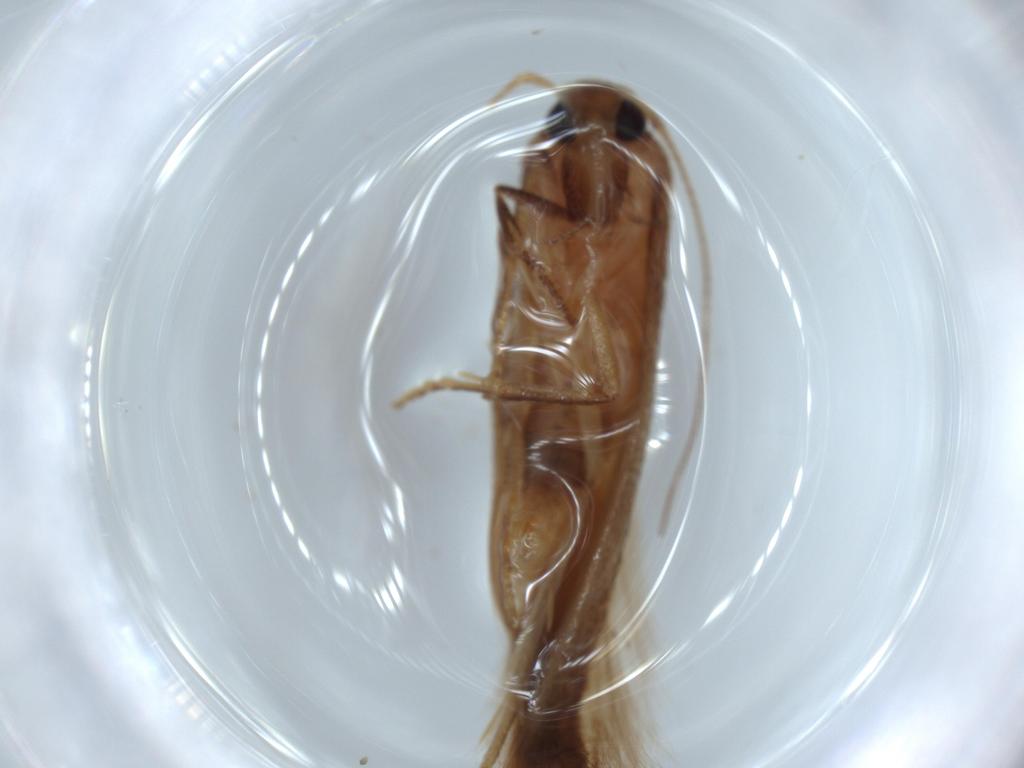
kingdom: Animalia
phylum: Arthropoda
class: Insecta
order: Lepidoptera
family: Stathmopodidae
